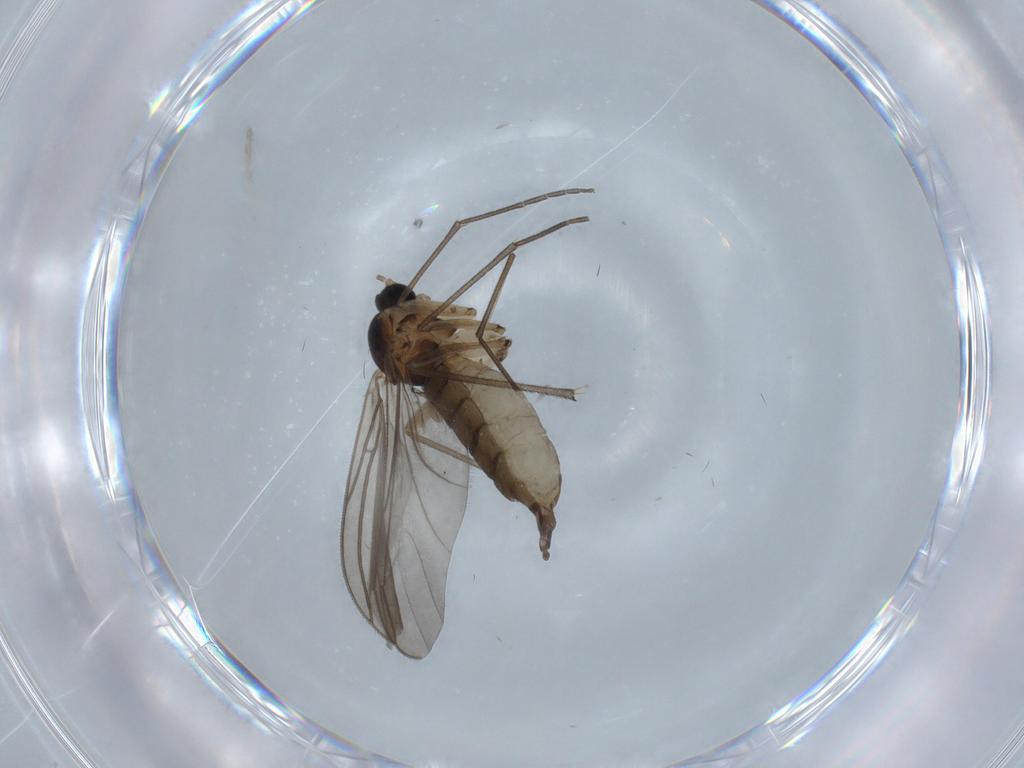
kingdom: Animalia
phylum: Arthropoda
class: Insecta
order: Diptera
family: Sciaridae
